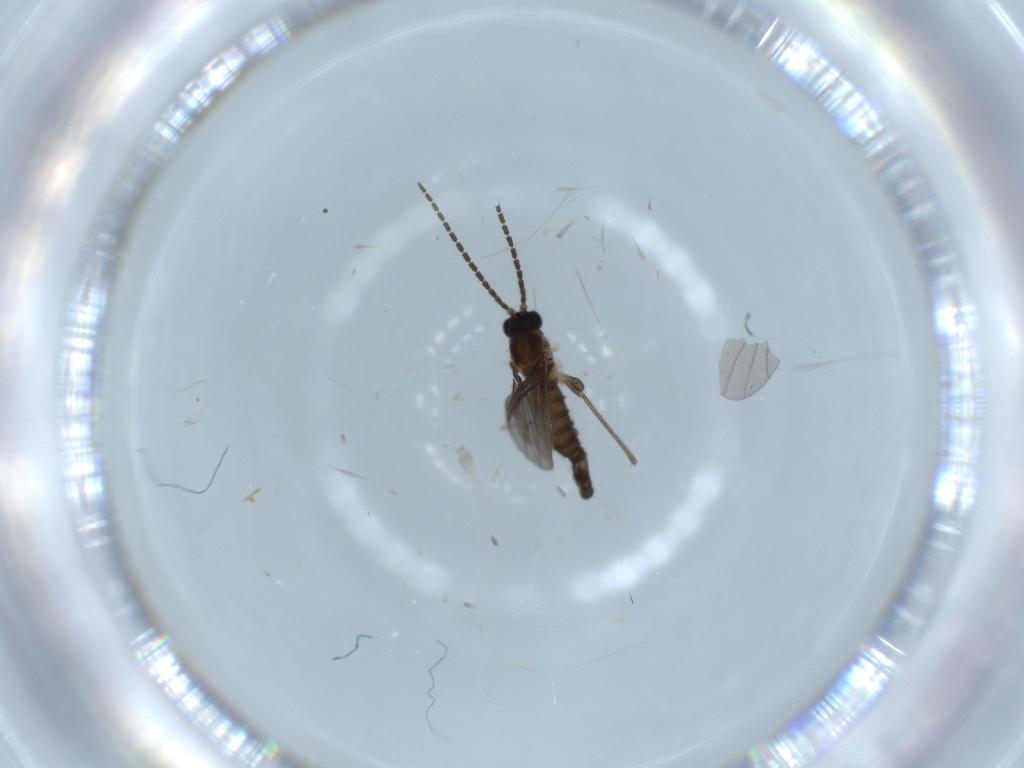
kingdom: Animalia
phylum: Arthropoda
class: Insecta
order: Diptera
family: Sciaridae
